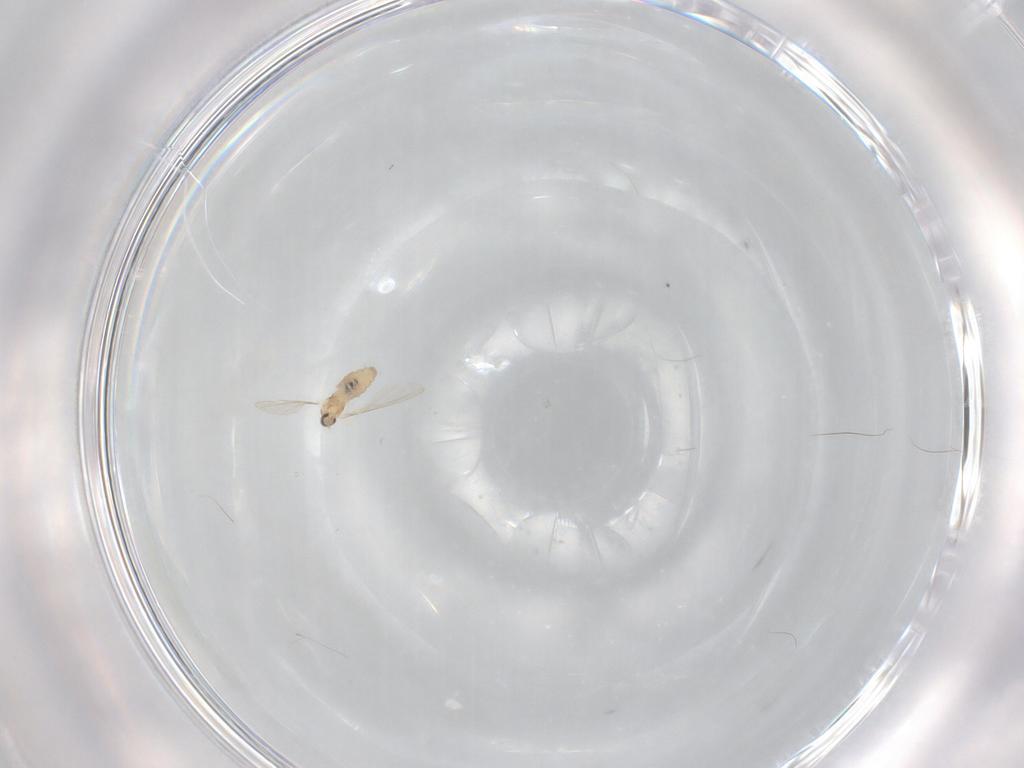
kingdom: Animalia
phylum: Arthropoda
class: Insecta
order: Diptera
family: Cecidomyiidae
